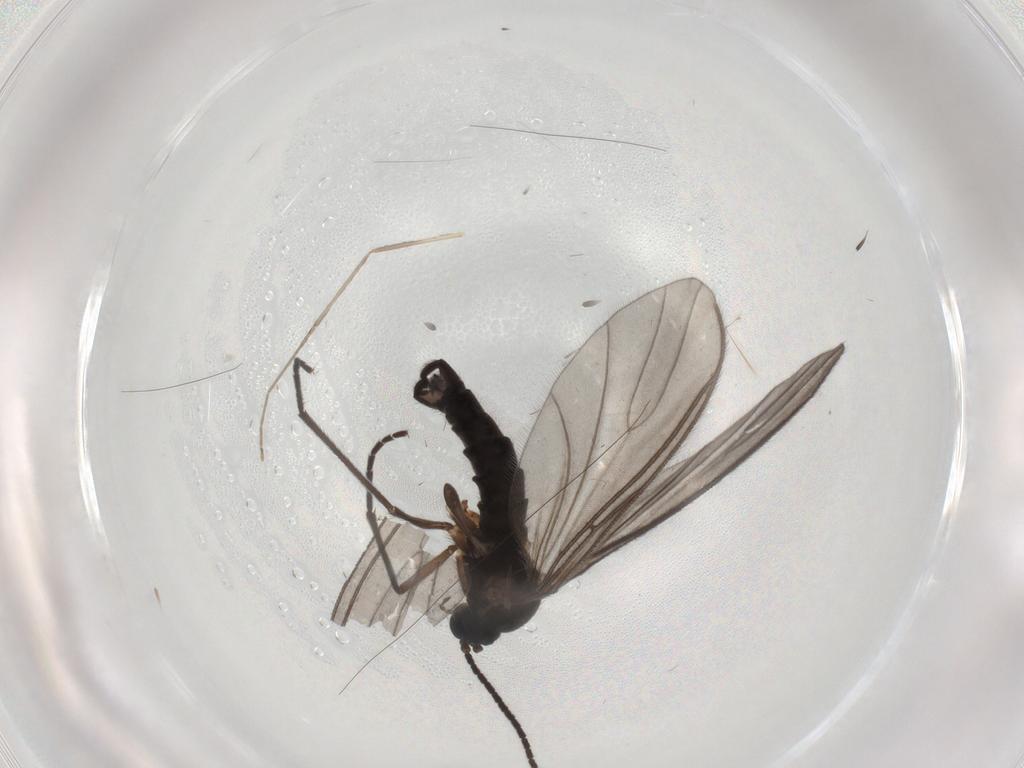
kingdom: Animalia
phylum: Arthropoda
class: Insecta
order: Diptera
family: Sciaridae
